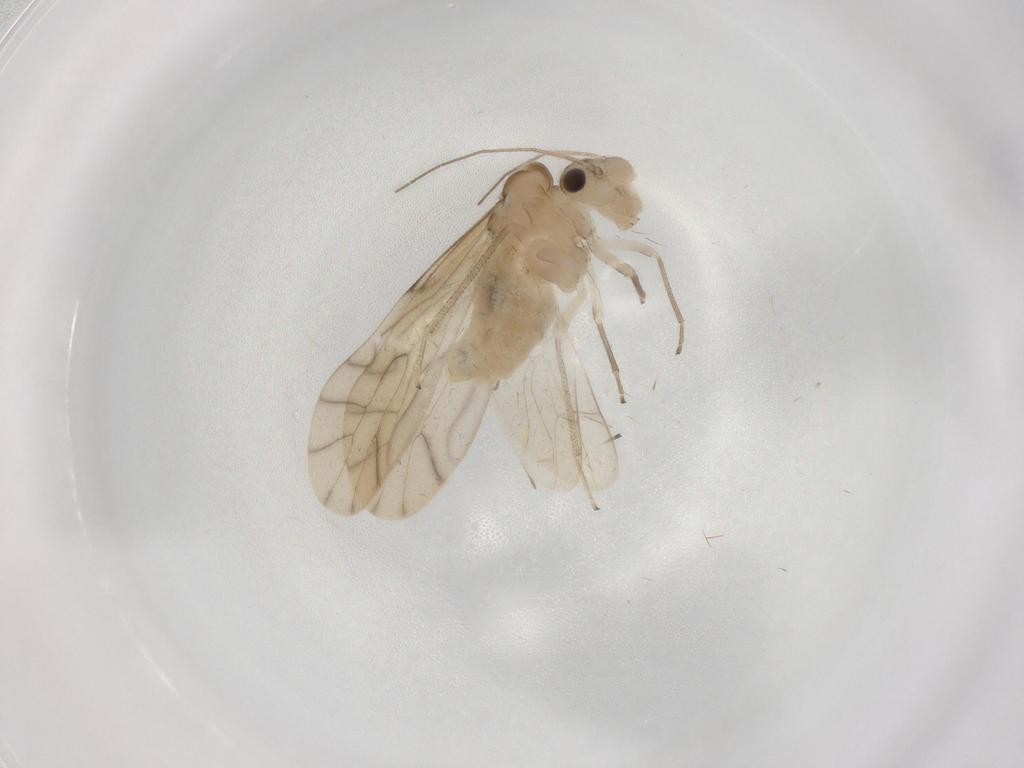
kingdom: Animalia
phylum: Arthropoda
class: Insecta
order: Psocodea
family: Caeciliusidae
